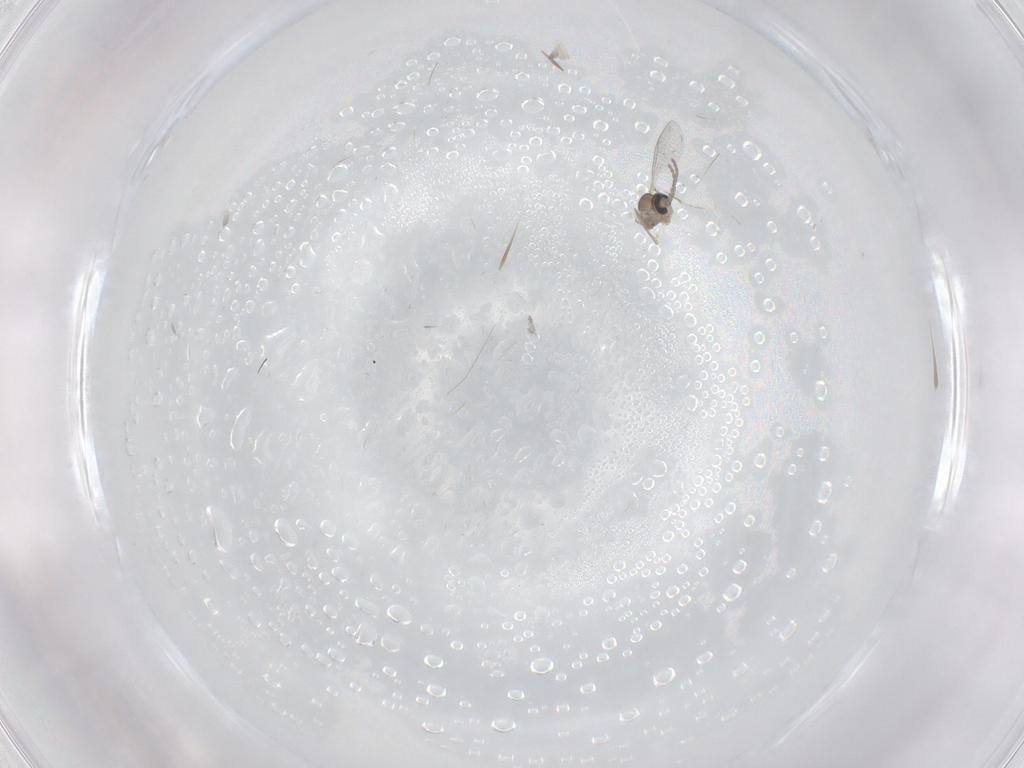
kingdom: Animalia
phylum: Arthropoda
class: Insecta
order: Diptera
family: Cecidomyiidae
